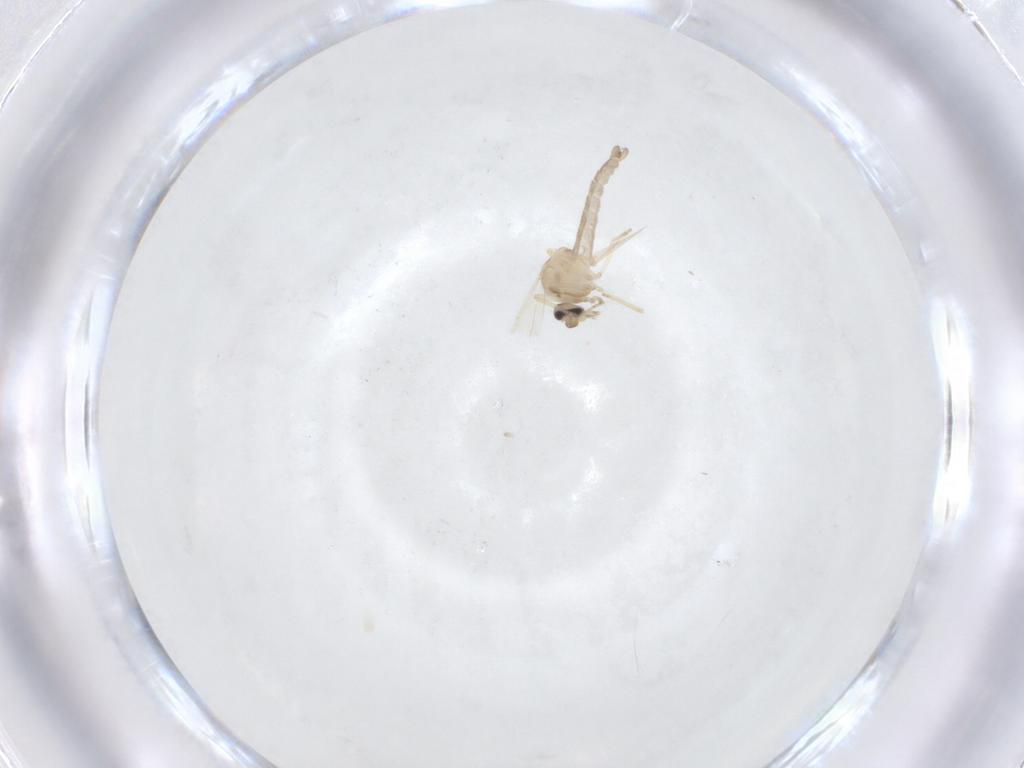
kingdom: Animalia
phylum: Arthropoda
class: Insecta
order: Diptera
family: Ceratopogonidae
